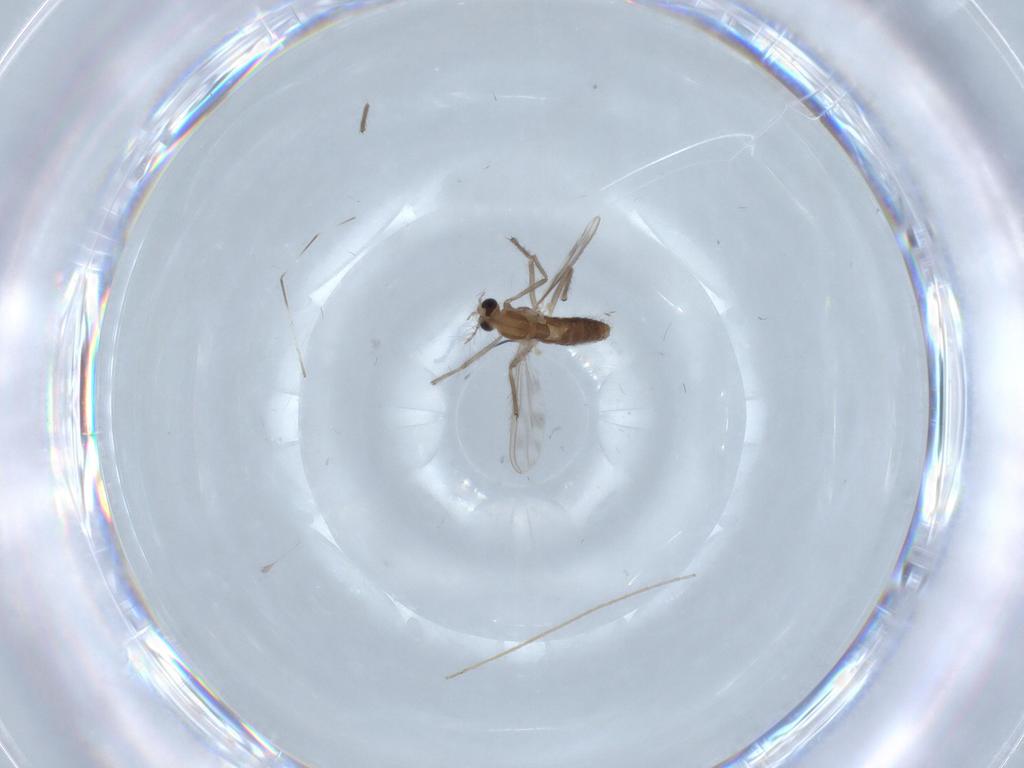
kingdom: Animalia
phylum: Arthropoda
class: Insecta
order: Diptera
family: Chironomidae
